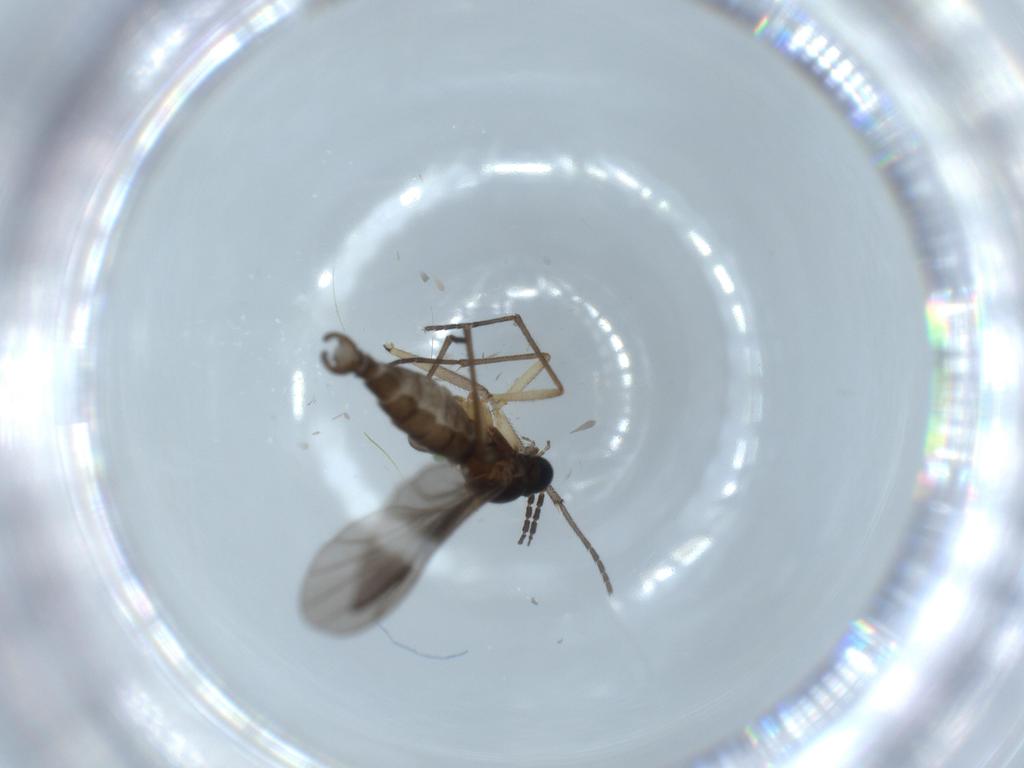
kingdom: Animalia
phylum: Arthropoda
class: Insecta
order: Diptera
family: Sciaridae
